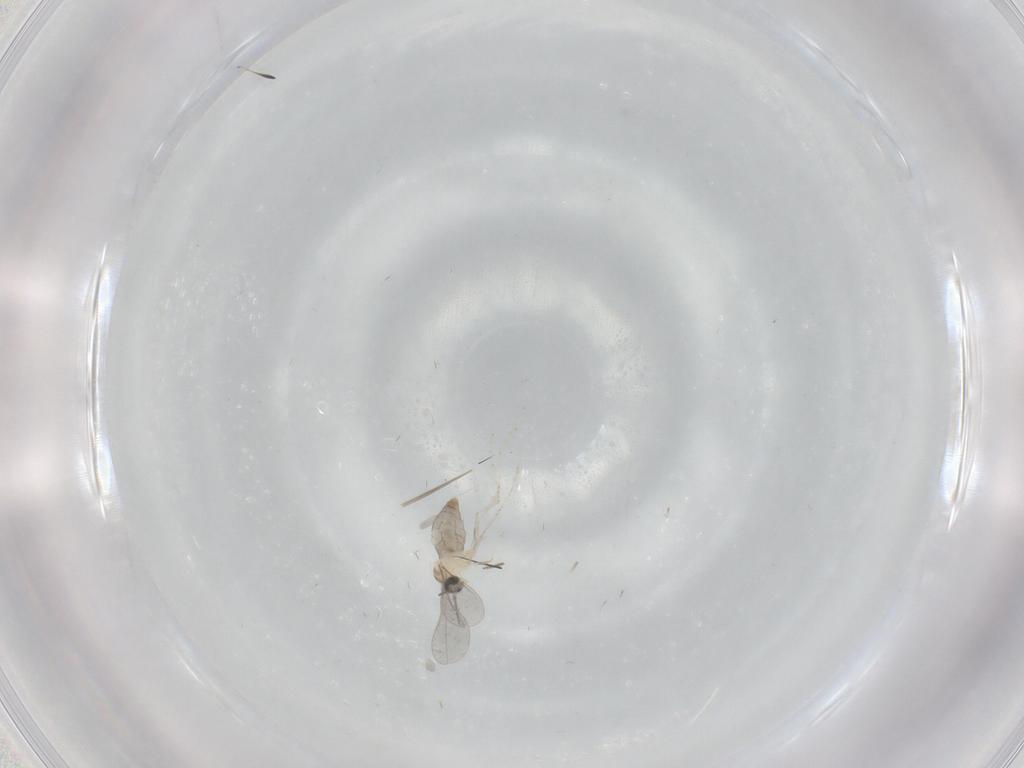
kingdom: Animalia
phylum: Arthropoda
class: Insecta
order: Diptera
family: Cecidomyiidae
